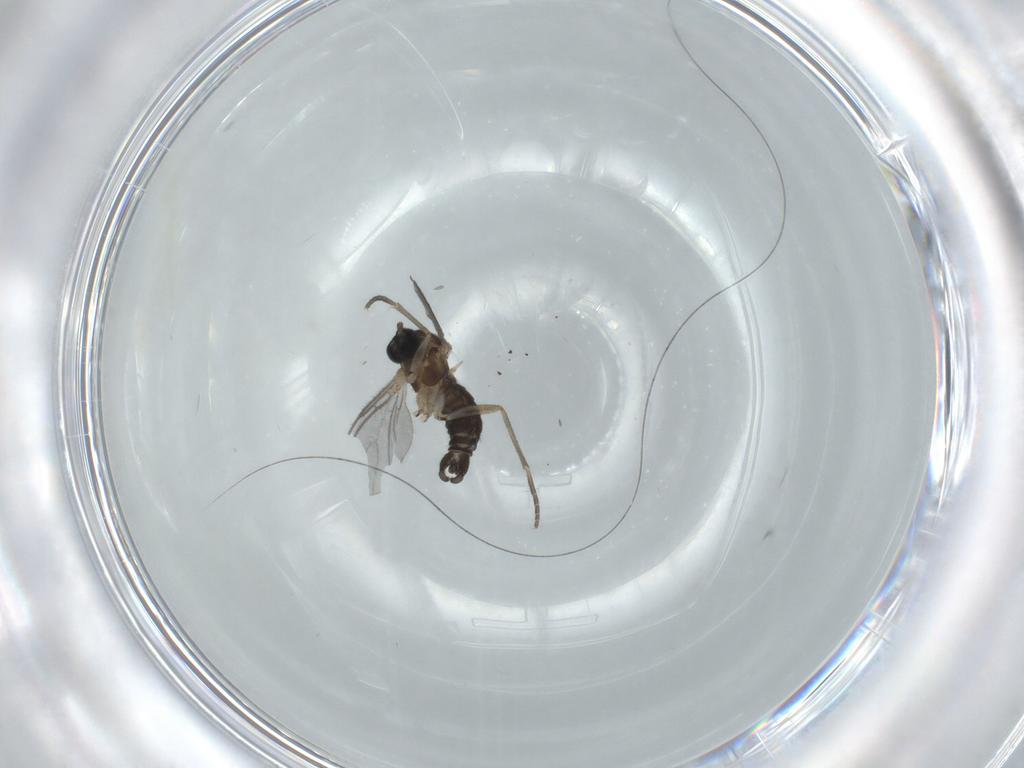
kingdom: Animalia
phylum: Arthropoda
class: Insecta
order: Diptera
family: Sciaridae
